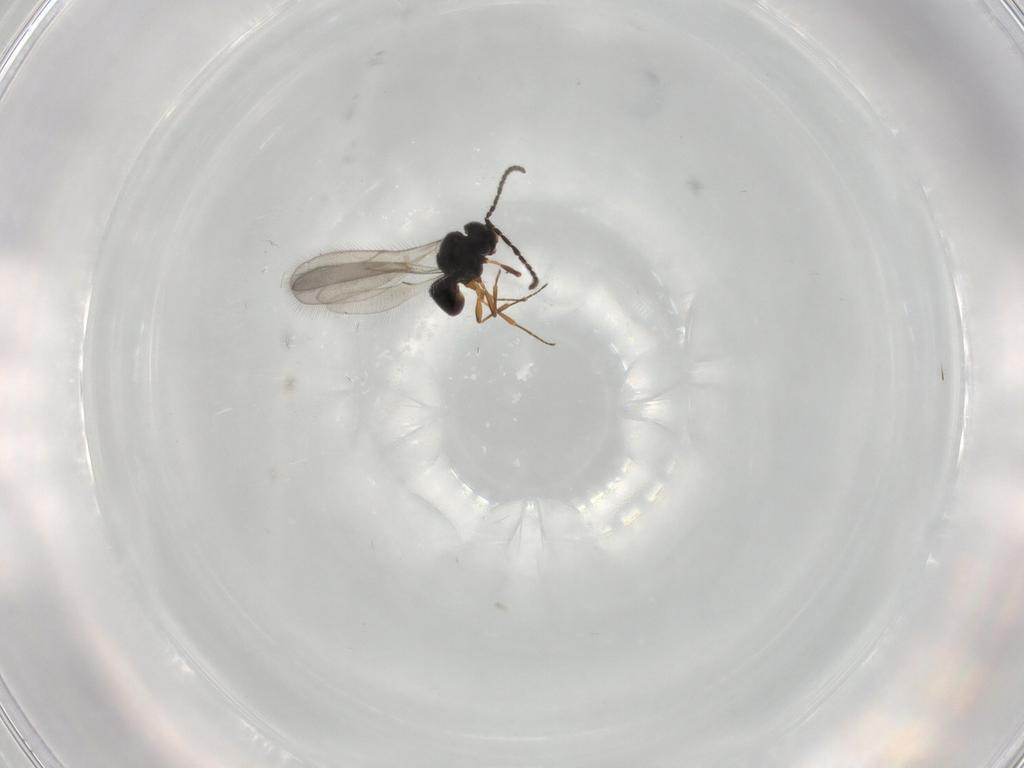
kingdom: Animalia
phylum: Arthropoda
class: Insecta
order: Hymenoptera
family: Scelionidae
